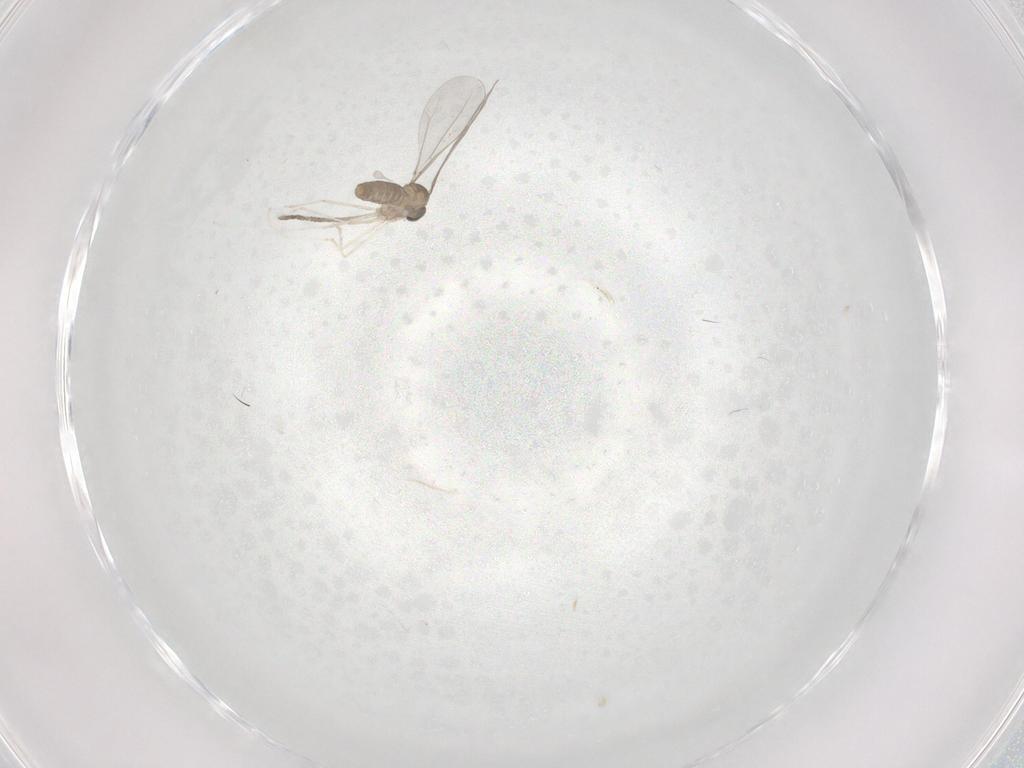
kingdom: Animalia
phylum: Arthropoda
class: Insecta
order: Diptera
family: Cecidomyiidae
